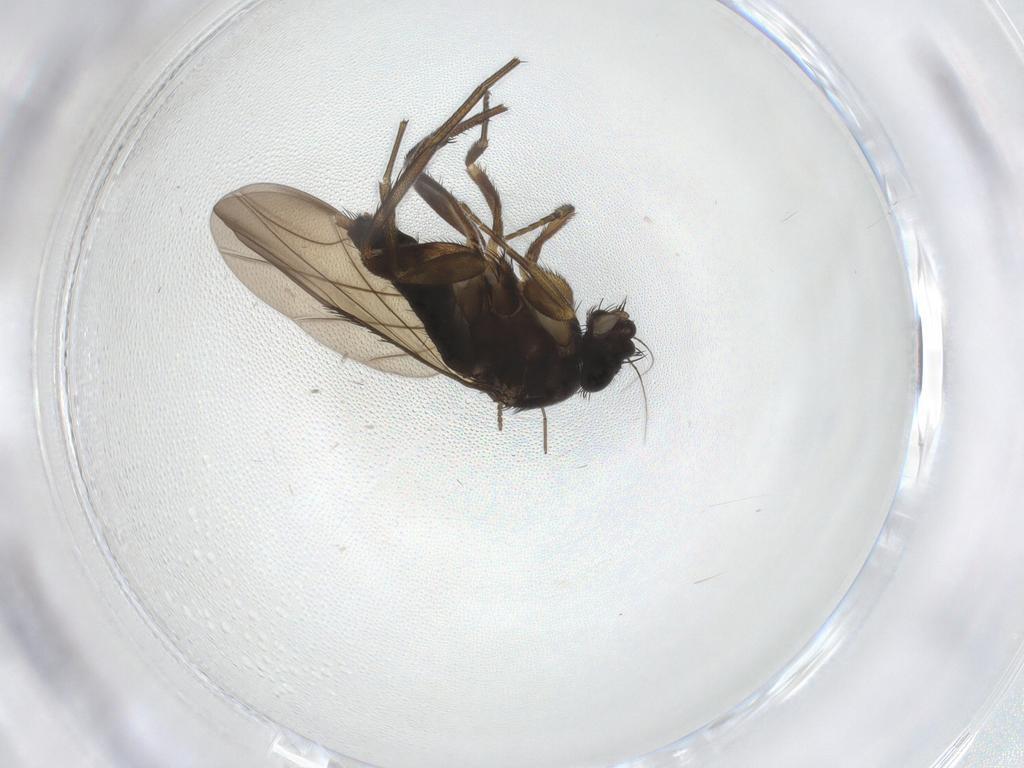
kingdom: Animalia
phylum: Arthropoda
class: Insecta
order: Diptera
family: Phoridae
